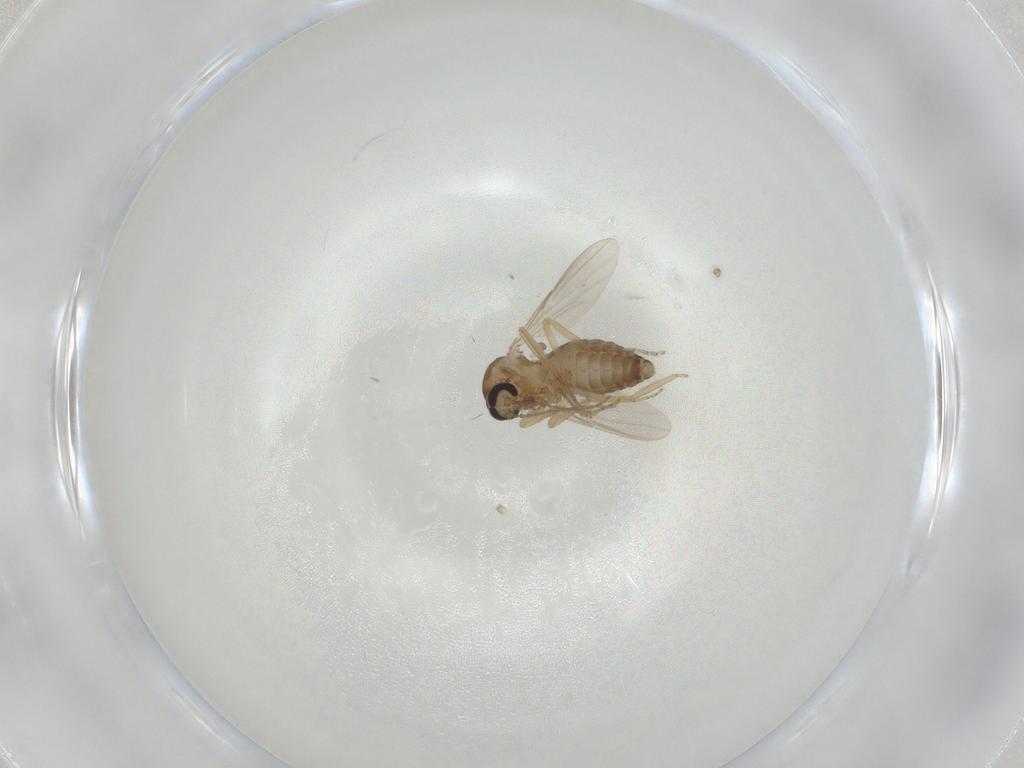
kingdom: Animalia
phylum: Arthropoda
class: Insecta
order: Diptera
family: Ceratopogonidae
